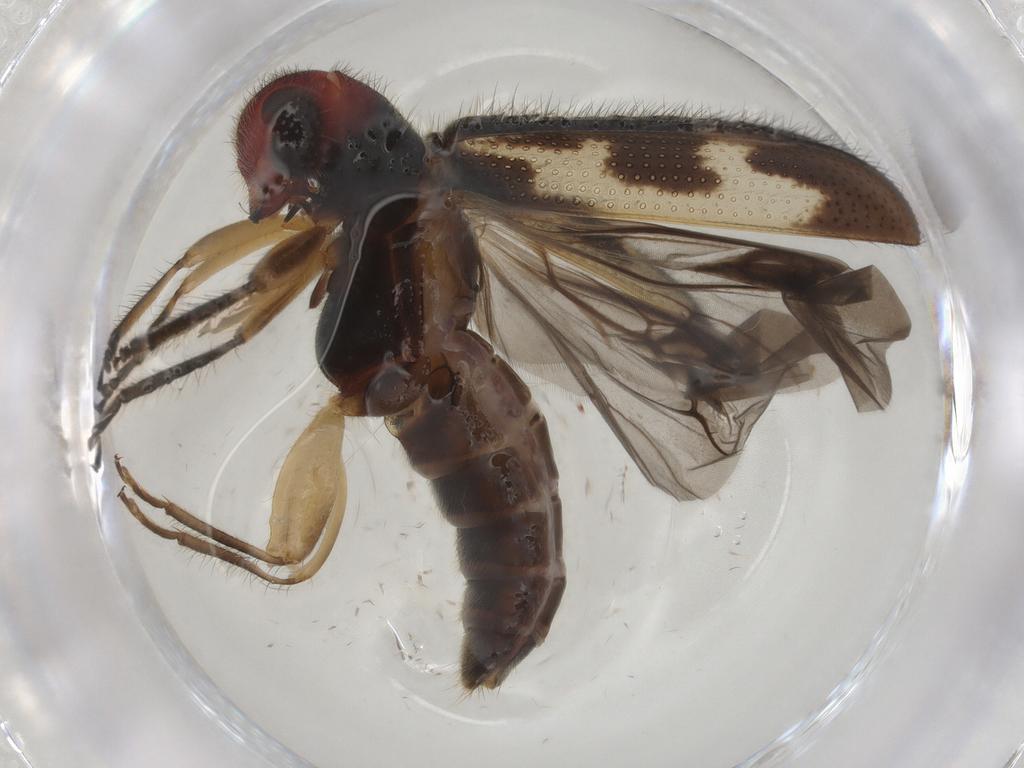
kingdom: Animalia
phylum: Arthropoda
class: Insecta
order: Coleoptera
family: Cleridae
